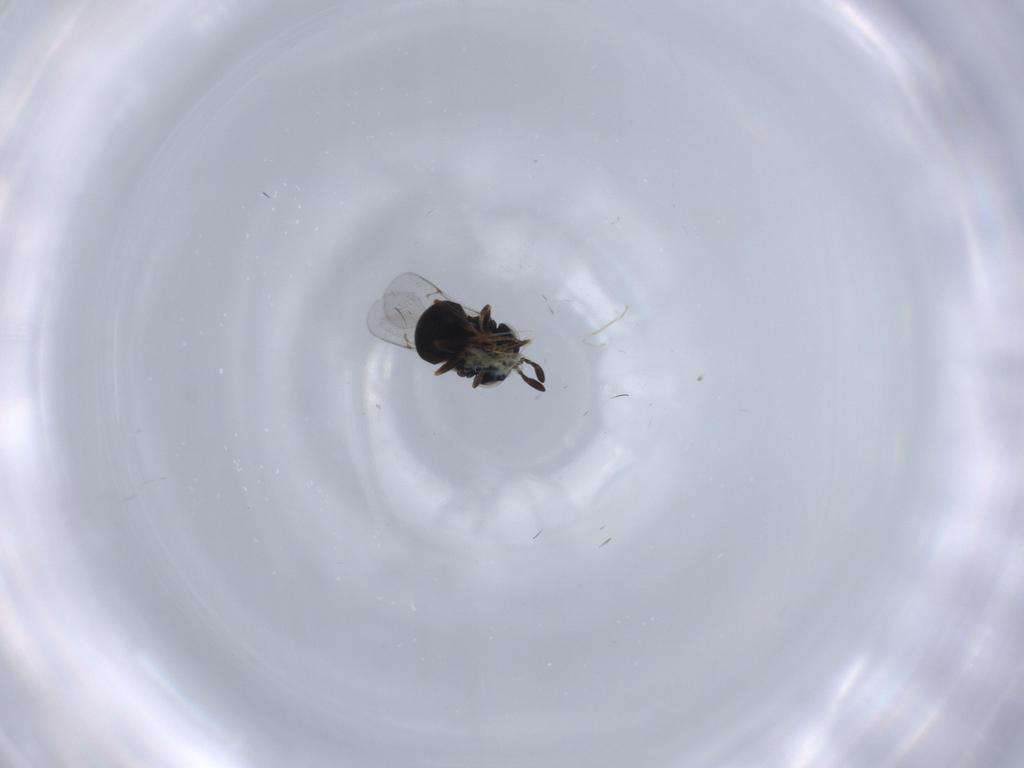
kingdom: Animalia
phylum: Arthropoda
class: Insecta
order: Hymenoptera
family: Scelionidae
